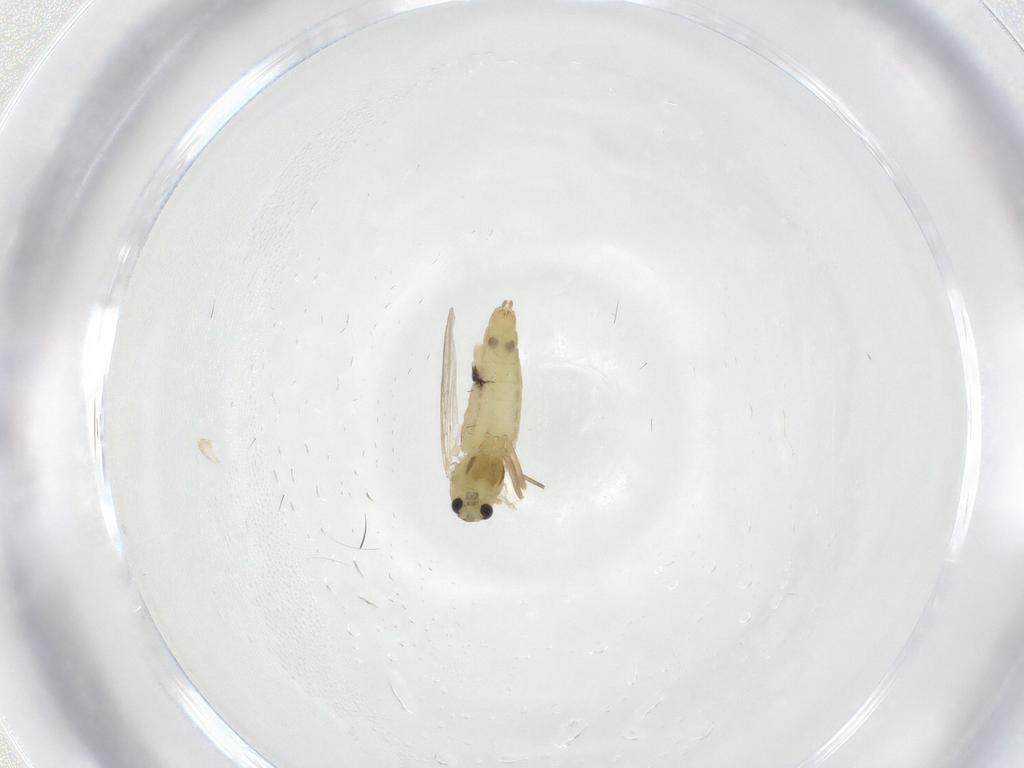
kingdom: Animalia
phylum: Arthropoda
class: Insecta
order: Diptera
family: Chironomidae
